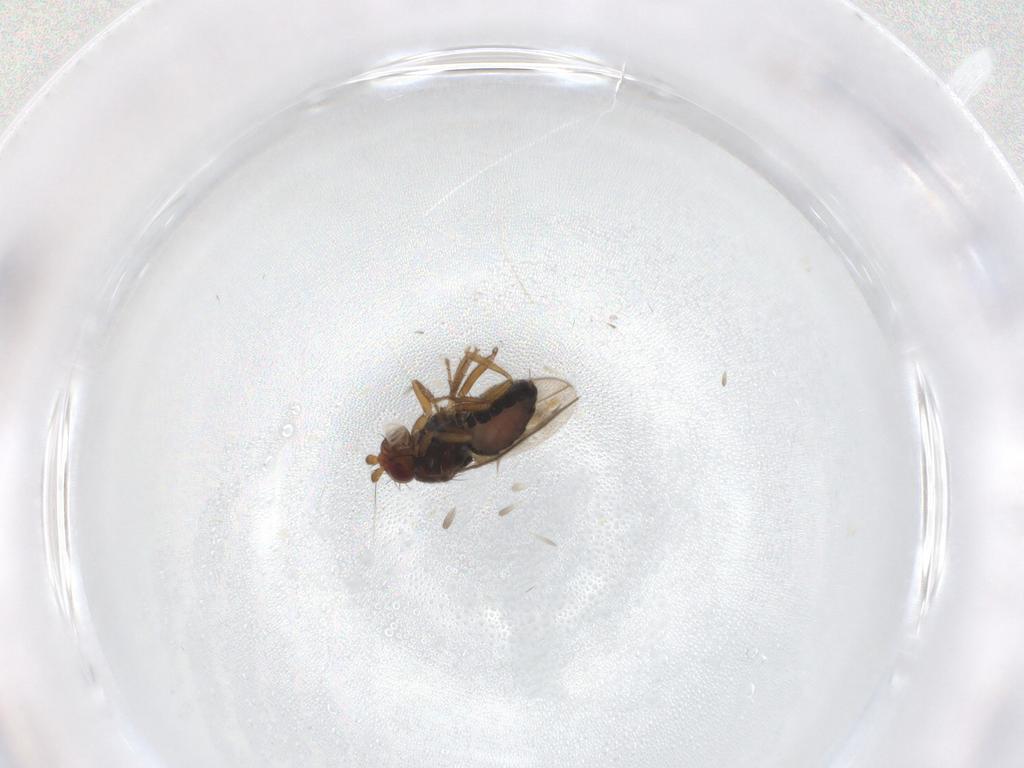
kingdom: Animalia
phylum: Arthropoda
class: Insecta
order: Diptera
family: Sphaeroceridae
